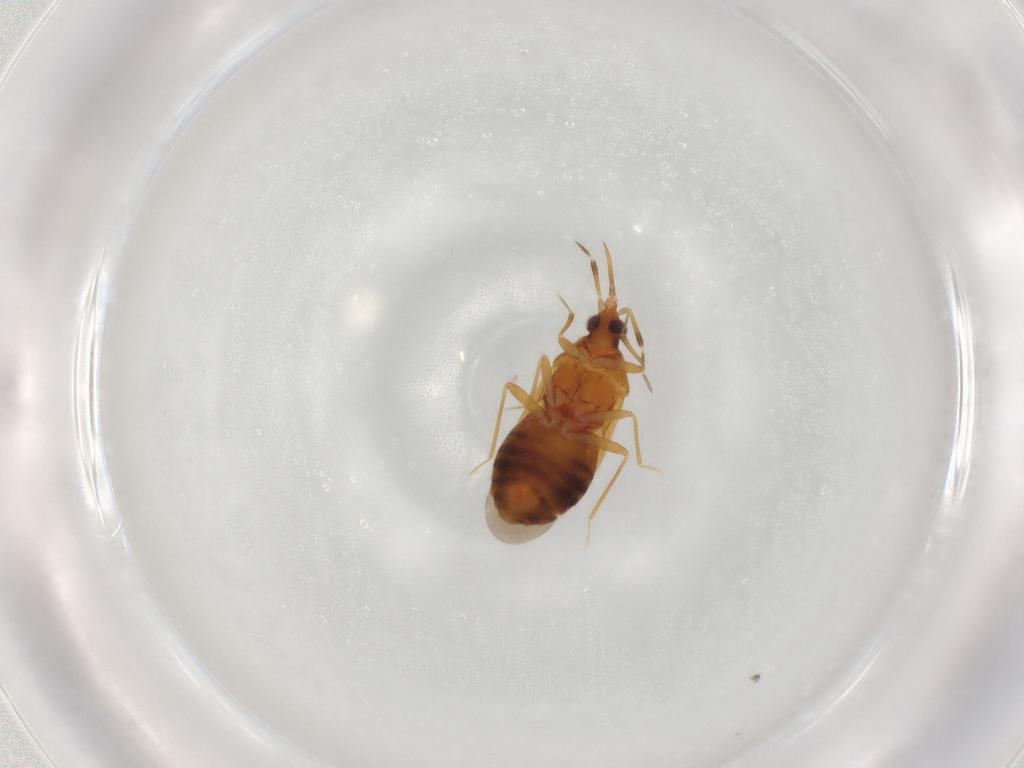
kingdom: Animalia
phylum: Arthropoda
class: Insecta
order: Hemiptera
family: Anthocoridae
